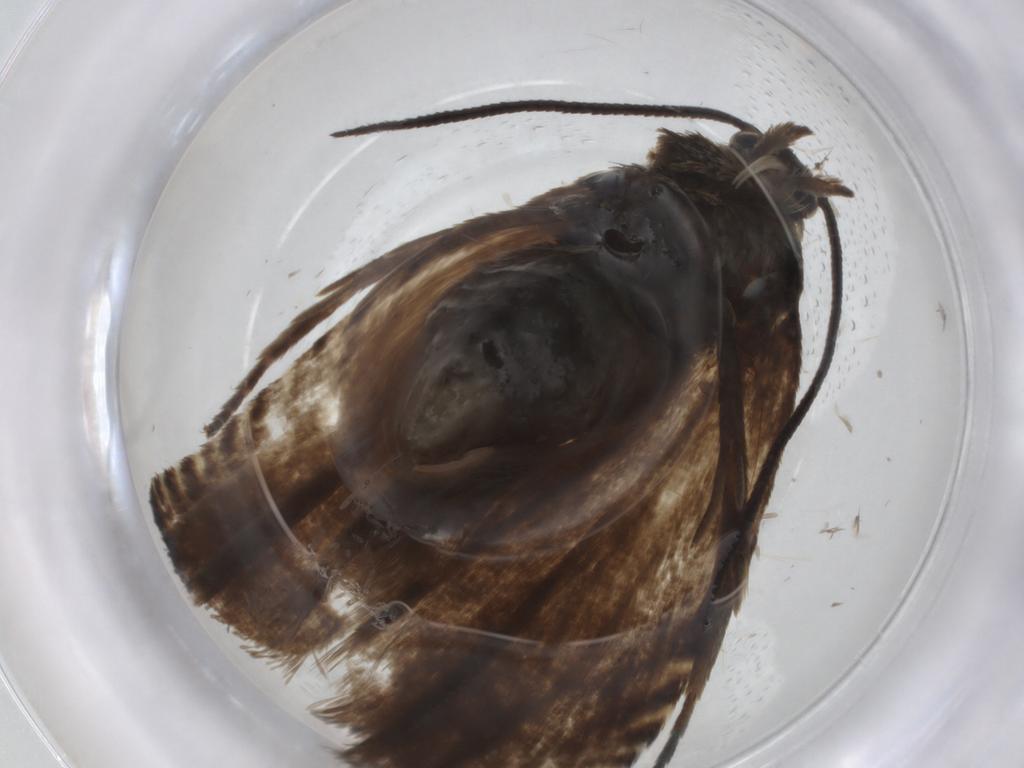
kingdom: Animalia
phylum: Arthropoda
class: Insecta
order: Lepidoptera
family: Tortricidae
